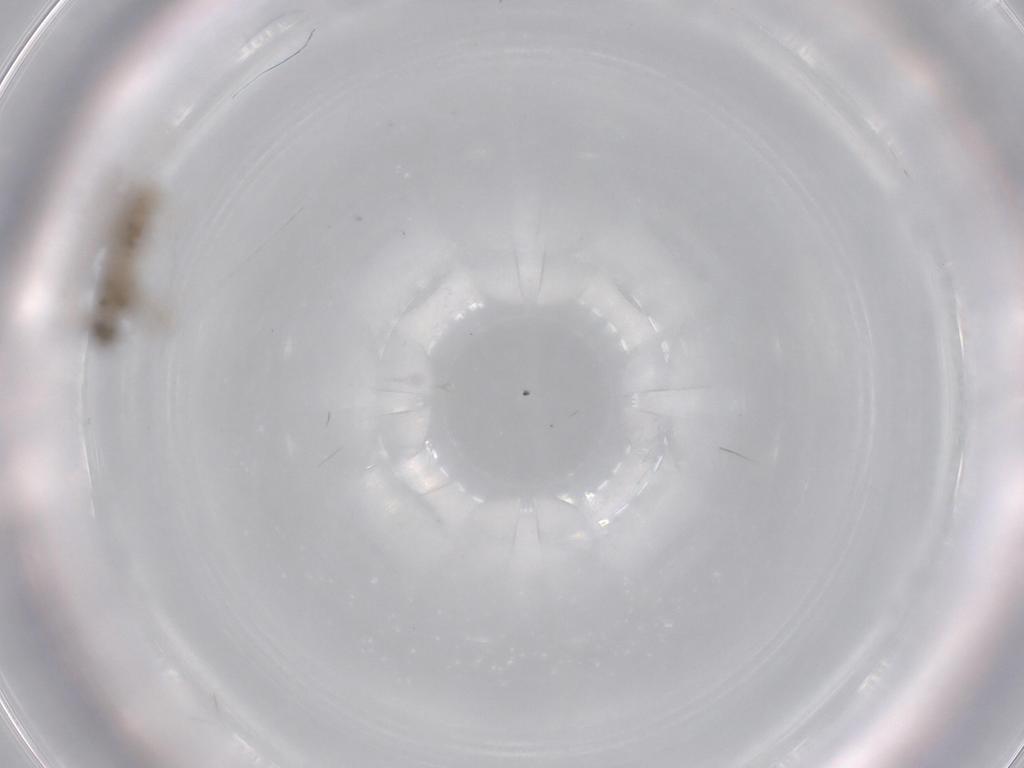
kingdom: Animalia
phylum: Arthropoda
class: Insecta
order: Diptera
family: Cecidomyiidae
